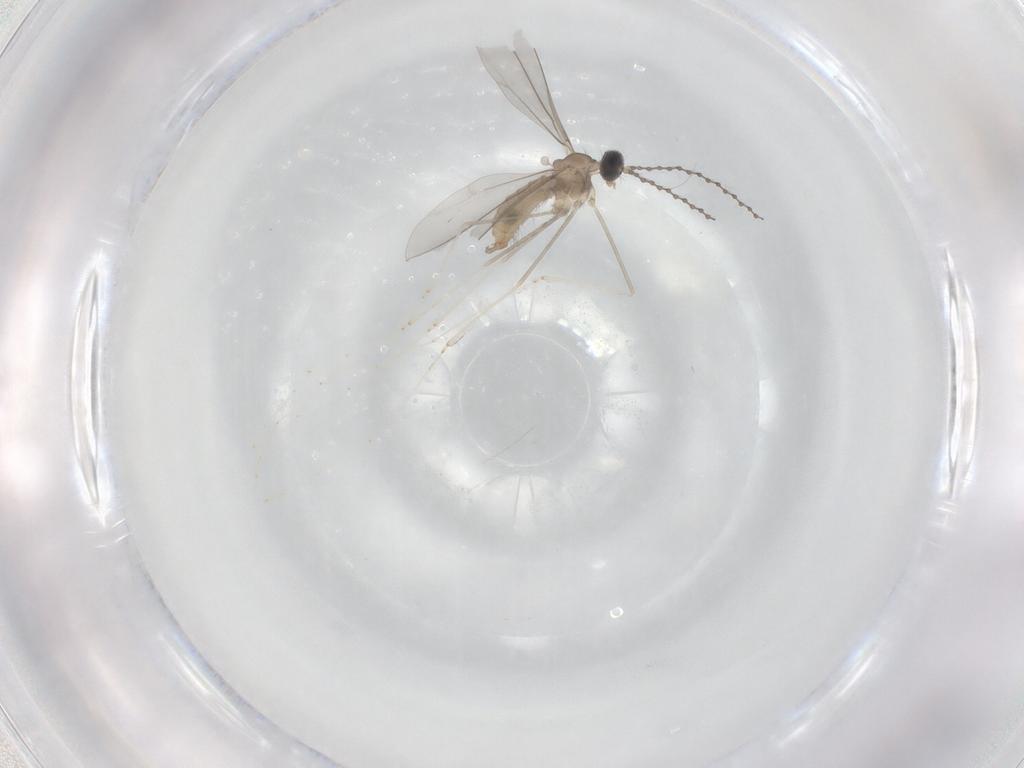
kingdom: Animalia
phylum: Arthropoda
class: Insecta
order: Diptera
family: Cecidomyiidae
